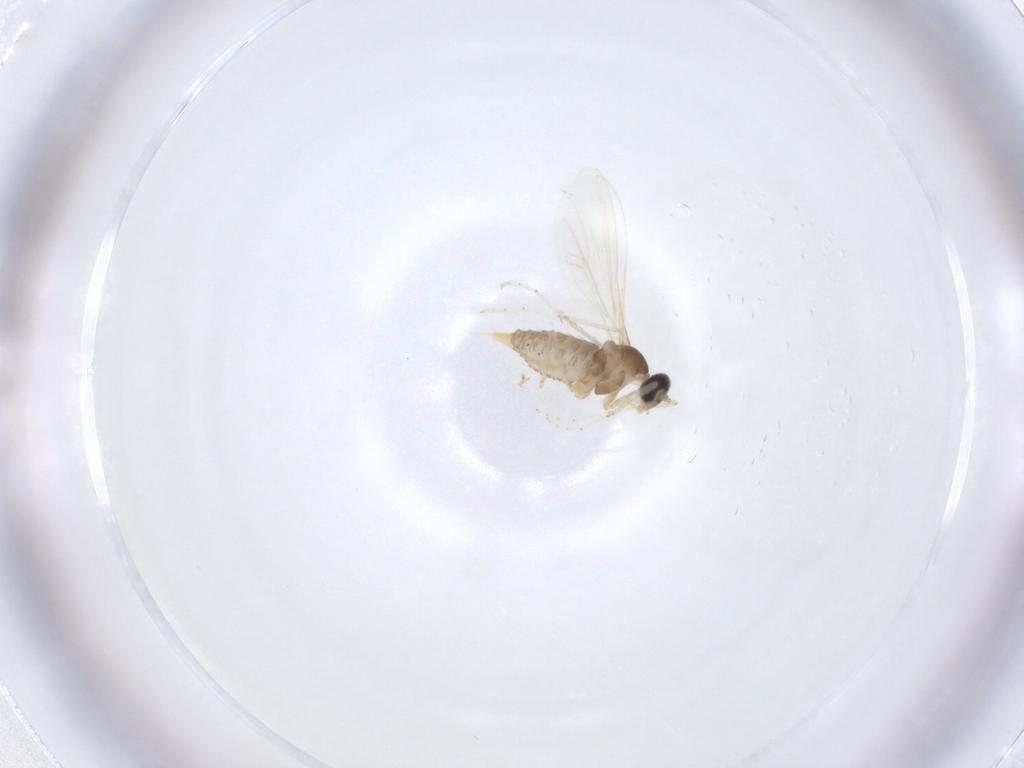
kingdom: Animalia
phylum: Arthropoda
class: Insecta
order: Diptera
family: Cecidomyiidae
